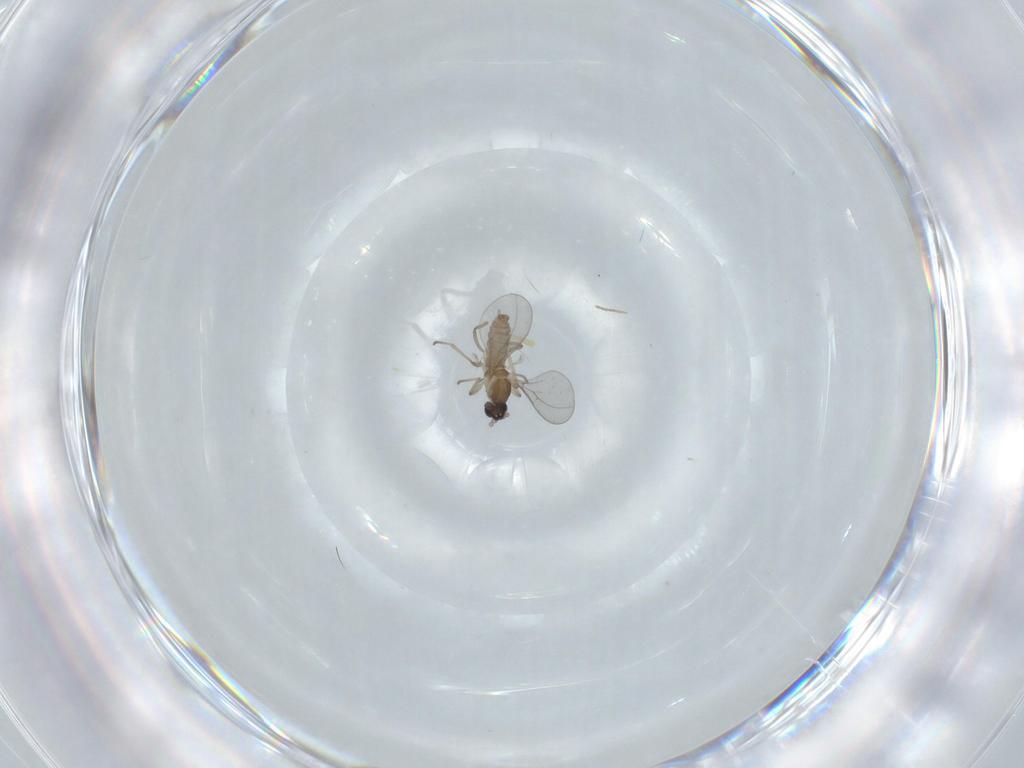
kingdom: Animalia
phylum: Arthropoda
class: Insecta
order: Diptera
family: Cecidomyiidae
